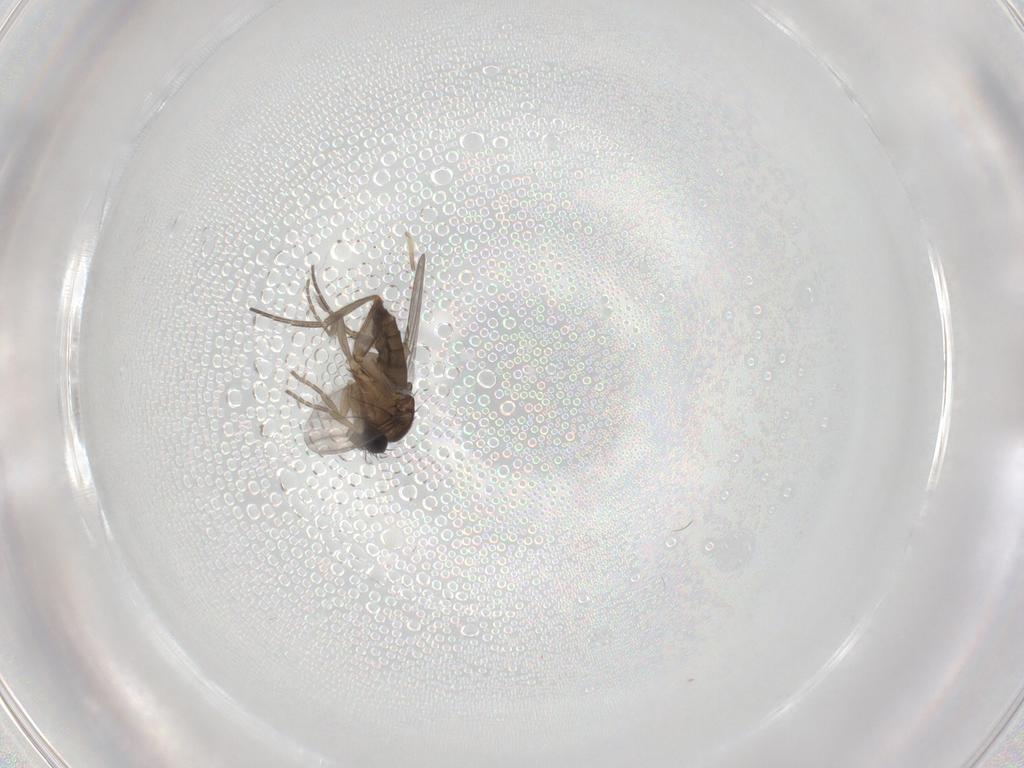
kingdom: Animalia
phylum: Arthropoda
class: Insecta
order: Diptera
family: Phoridae
